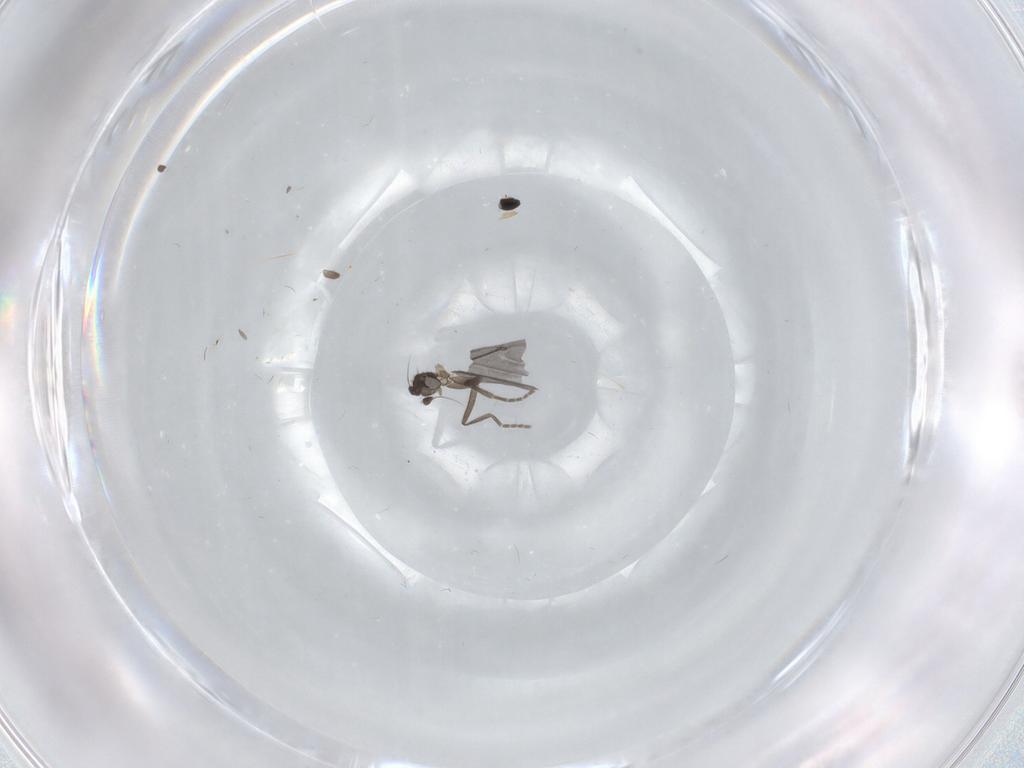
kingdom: Animalia
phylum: Arthropoda
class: Insecta
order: Diptera
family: Phoridae
